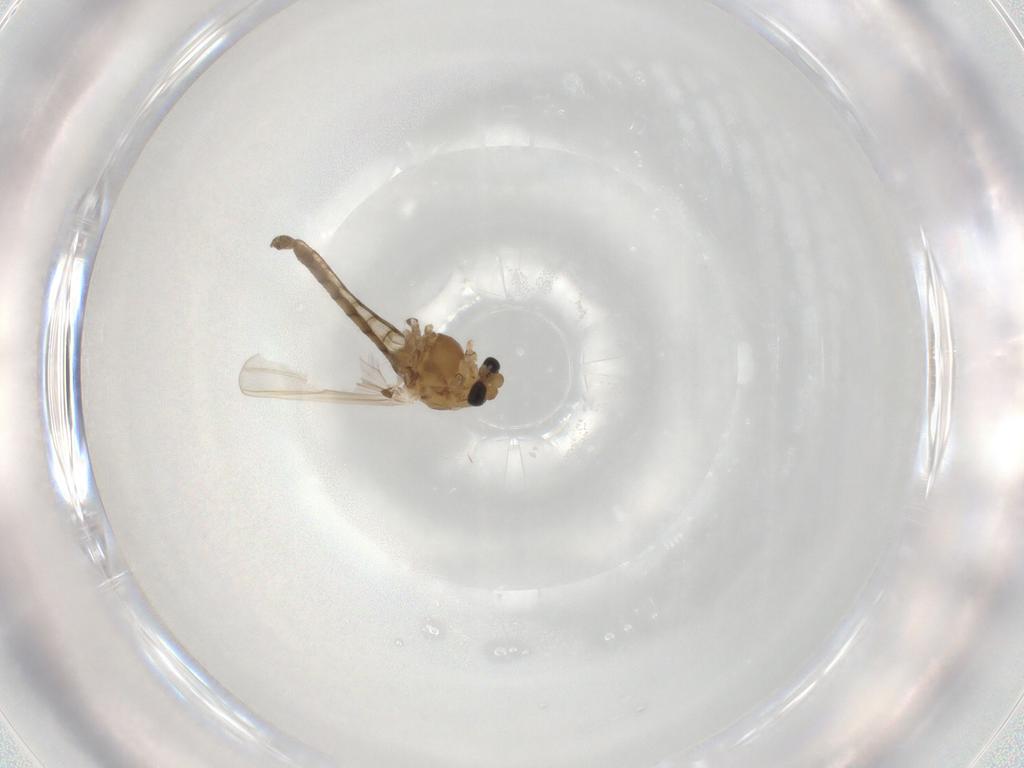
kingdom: Animalia
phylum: Arthropoda
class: Insecta
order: Diptera
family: Chironomidae
